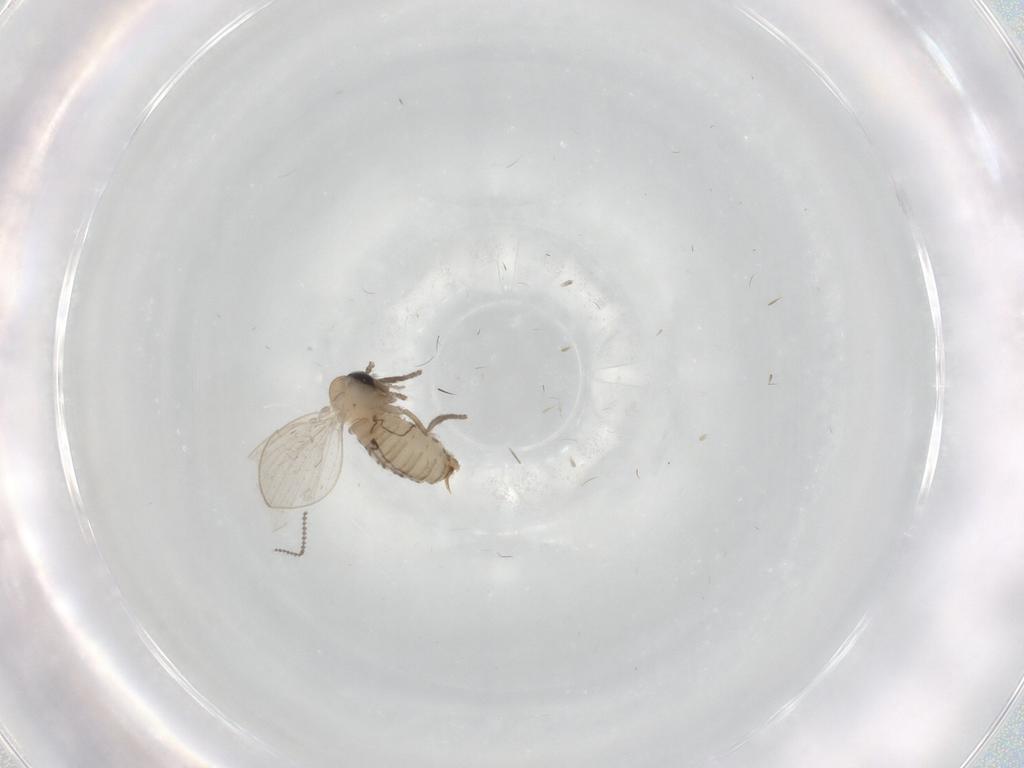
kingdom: Animalia
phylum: Arthropoda
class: Insecta
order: Diptera
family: Psychodidae
